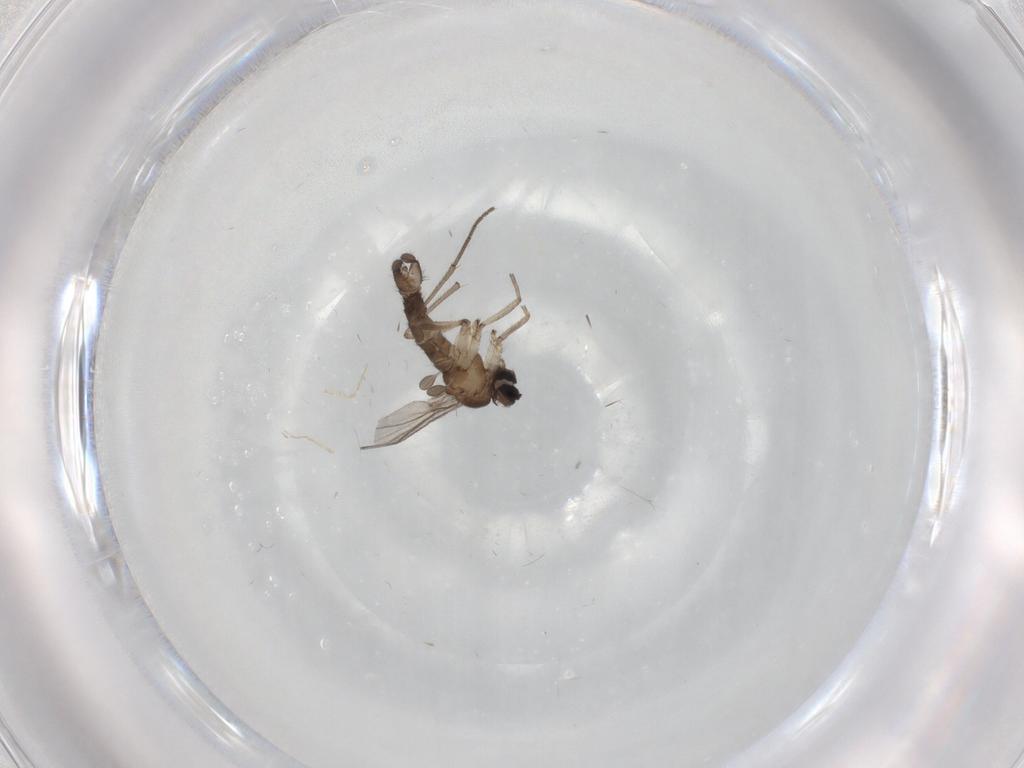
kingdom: Animalia
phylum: Arthropoda
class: Insecta
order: Diptera
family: Ceratopogonidae
